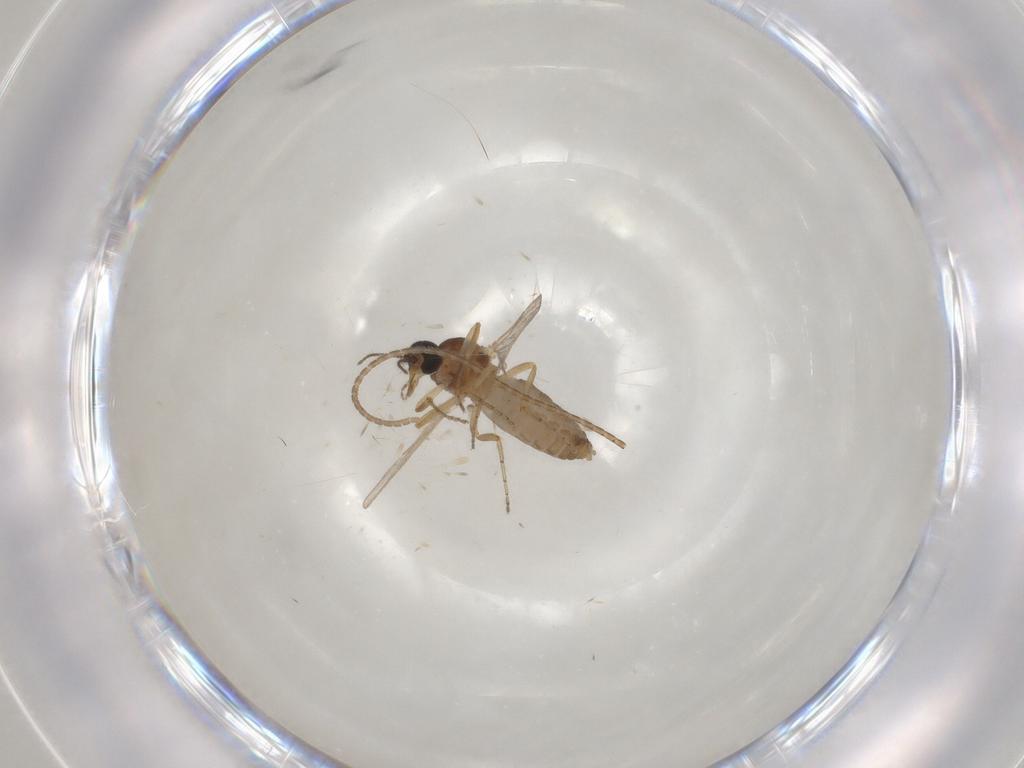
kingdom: Animalia
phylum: Arthropoda
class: Insecta
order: Diptera
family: Ceratopogonidae
